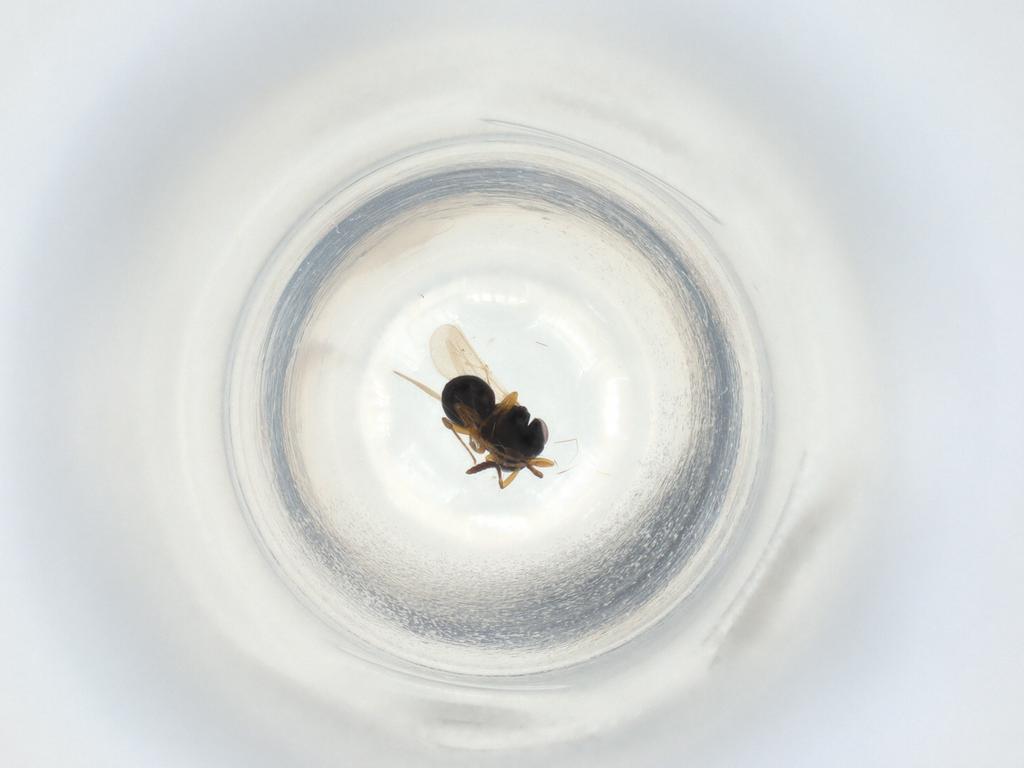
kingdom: Animalia
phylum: Arthropoda
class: Insecta
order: Hymenoptera
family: Scelionidae
